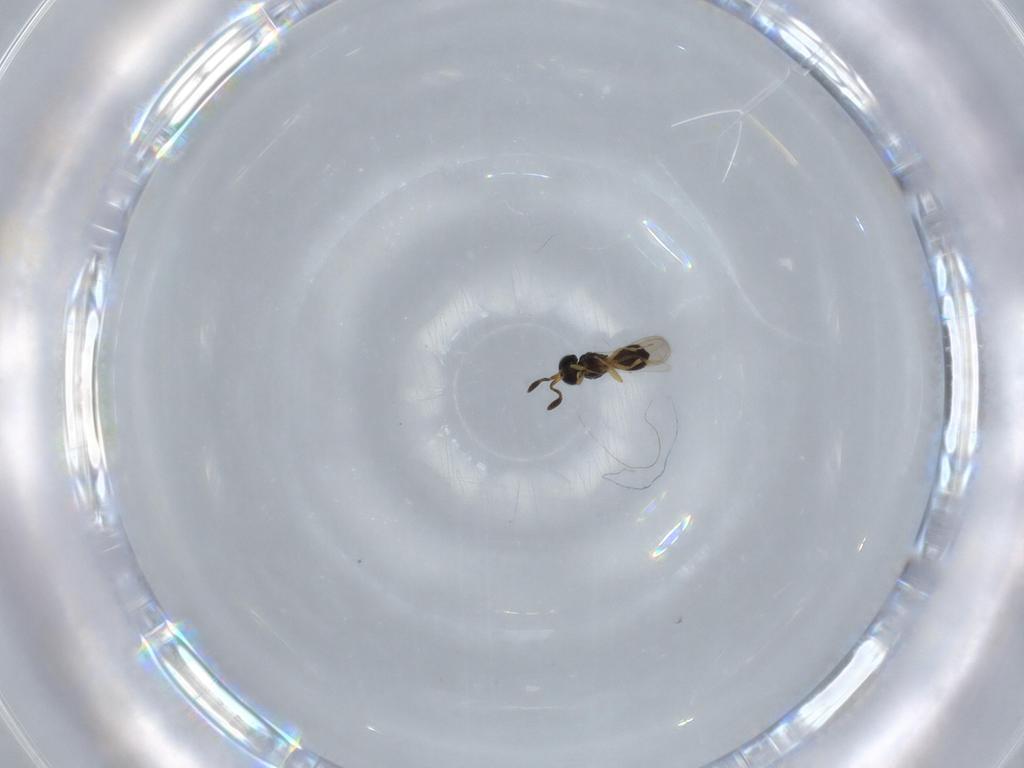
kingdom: Animalia
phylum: Arthropoda
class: Insecta
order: Hymenoptera
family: Scelionidae
